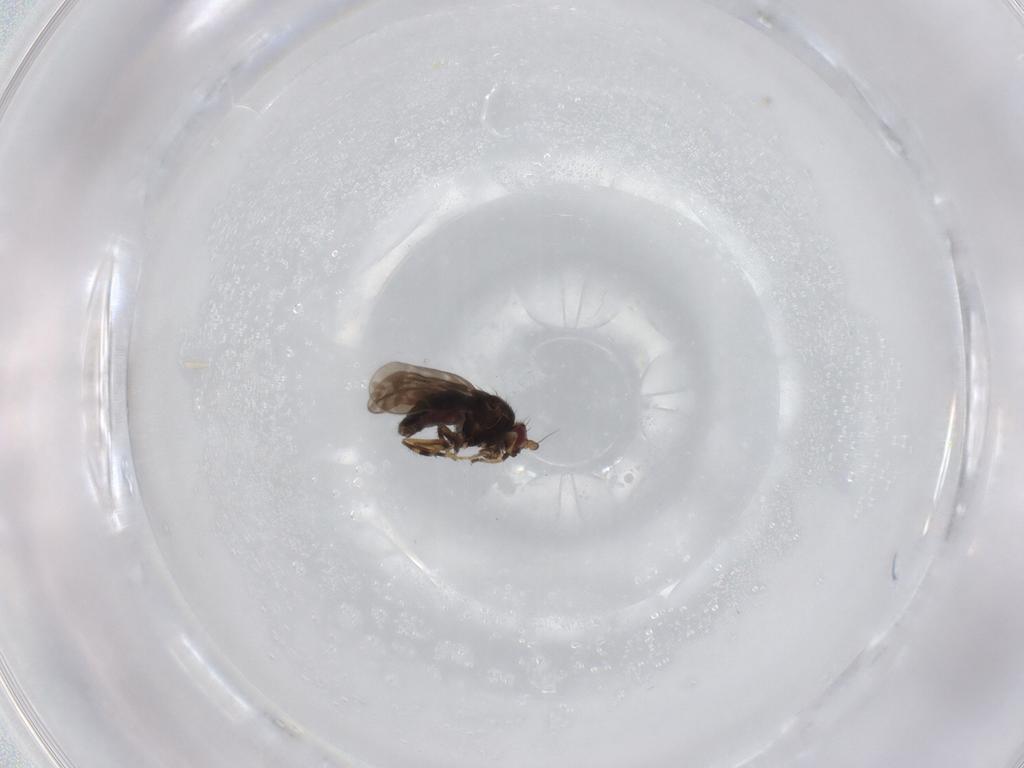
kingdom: Animalia
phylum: Arthropoda
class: Insecta
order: Diptera
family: Sphaeroceridae
